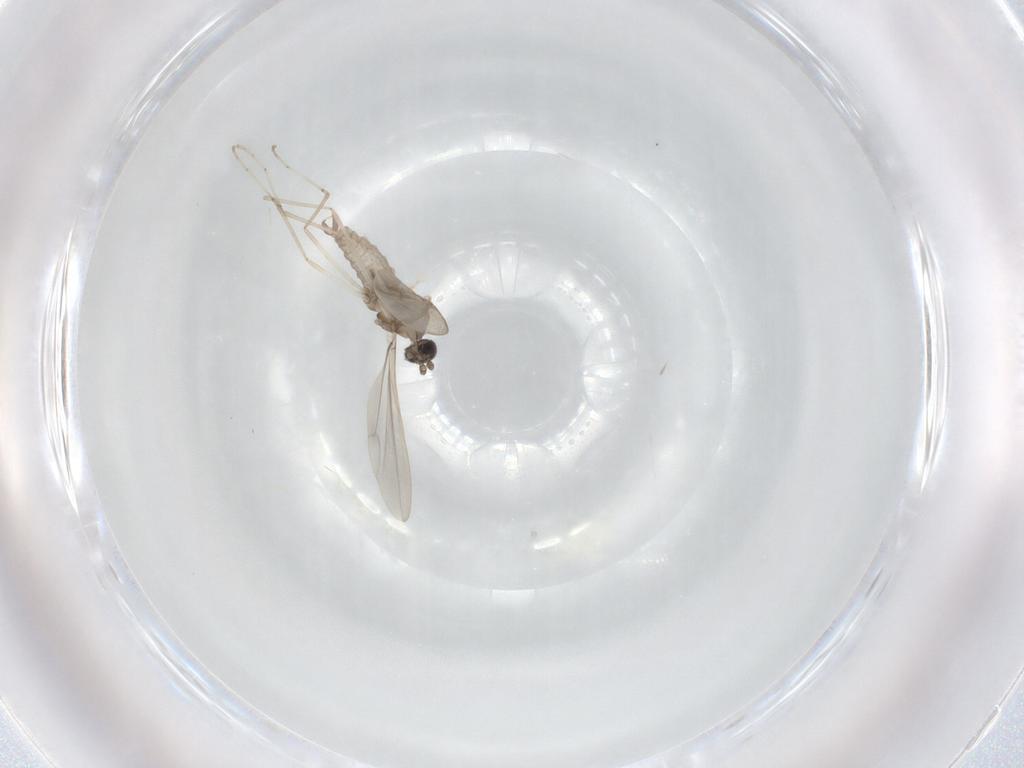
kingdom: Animalia
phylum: Arthropoda
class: Insecta
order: Diptera
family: Cecidomyiidae
